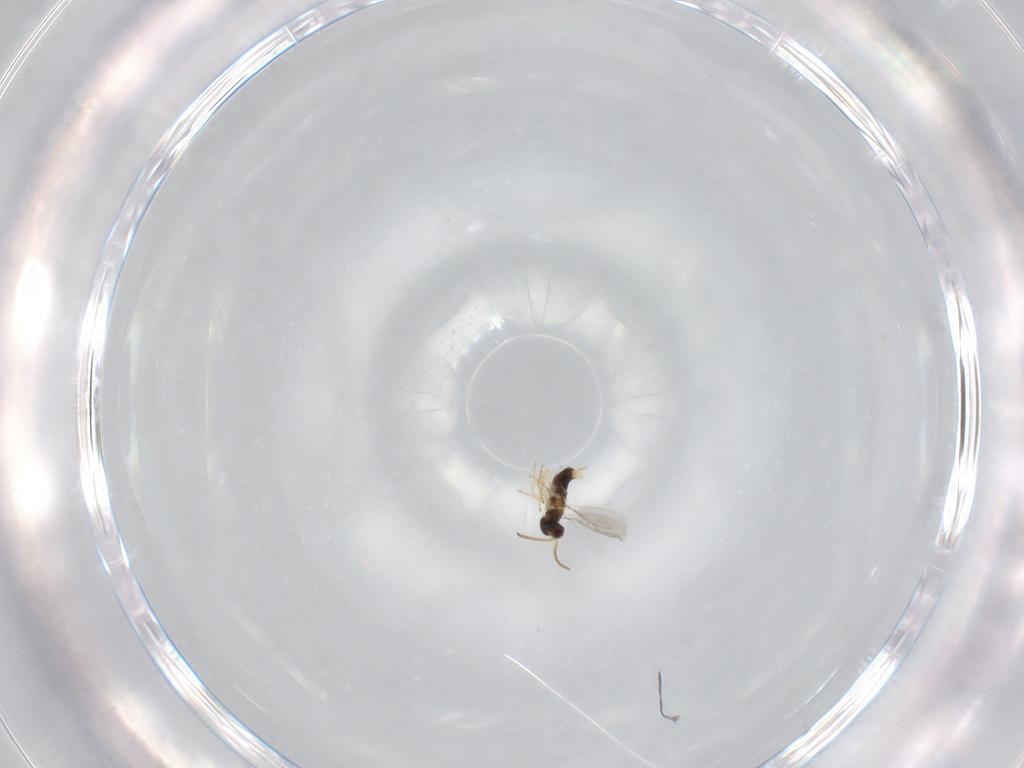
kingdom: Animalia
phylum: Arthropoda
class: Insecta
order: Hymenoptera
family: Aphelinidae
